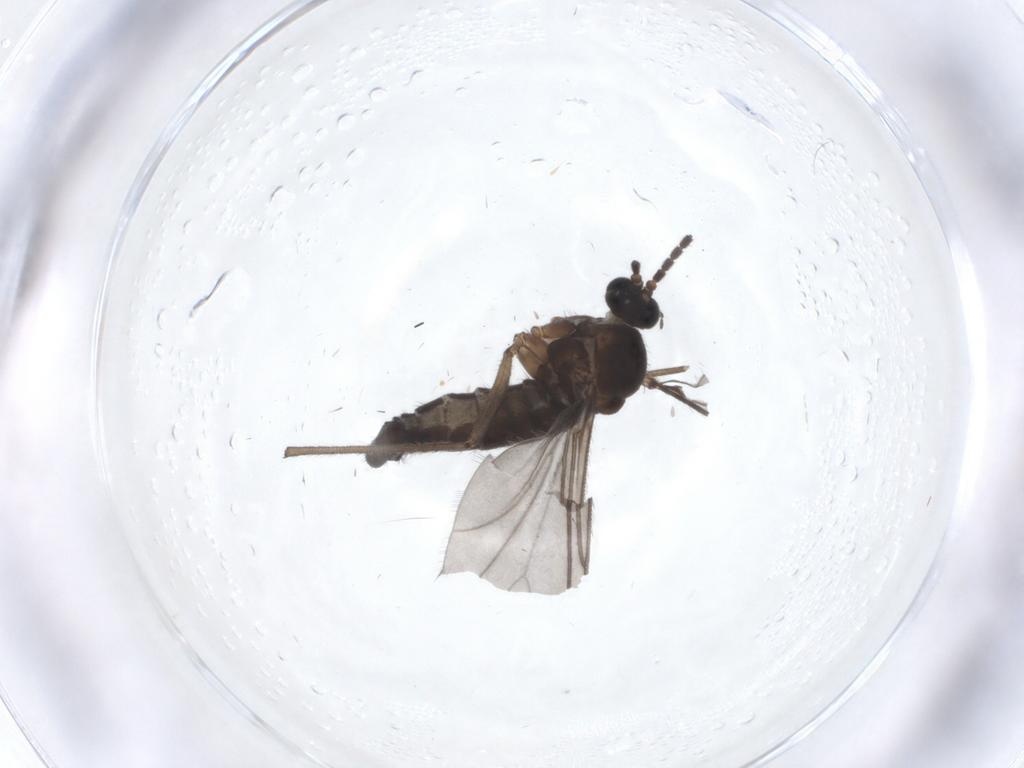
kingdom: Animalia
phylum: Arthropoda
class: Insecta
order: Diptera
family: Sciaridae
